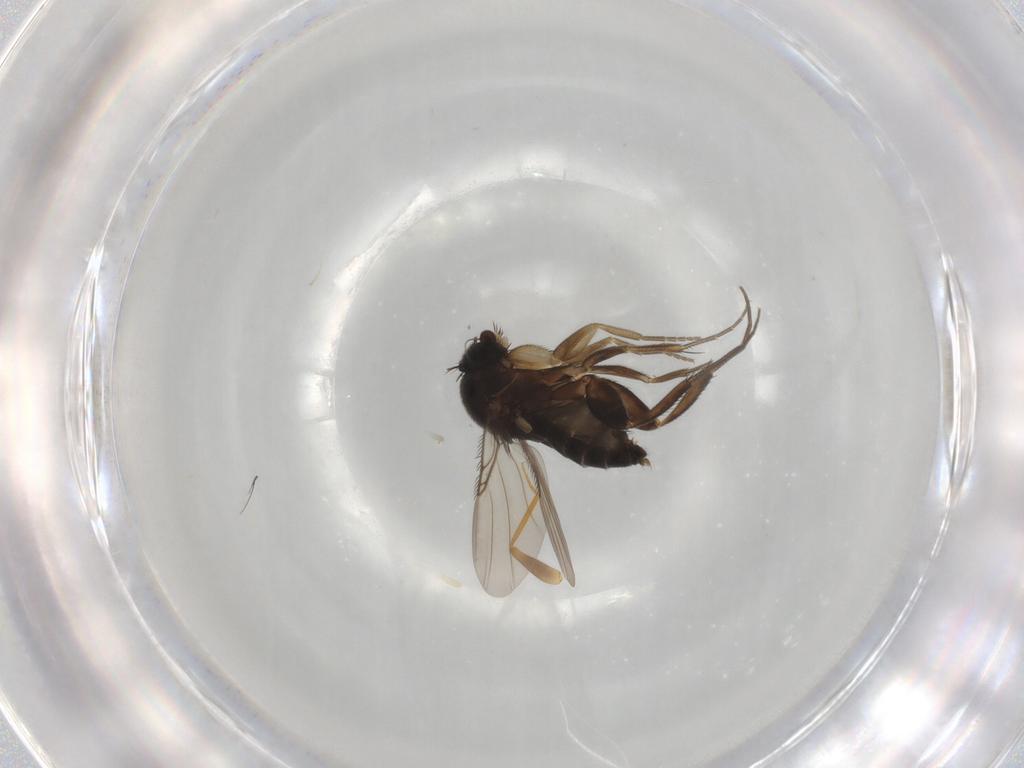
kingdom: Animalia
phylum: Arthropoda
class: Insecta
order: Diptera
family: Phoridae
